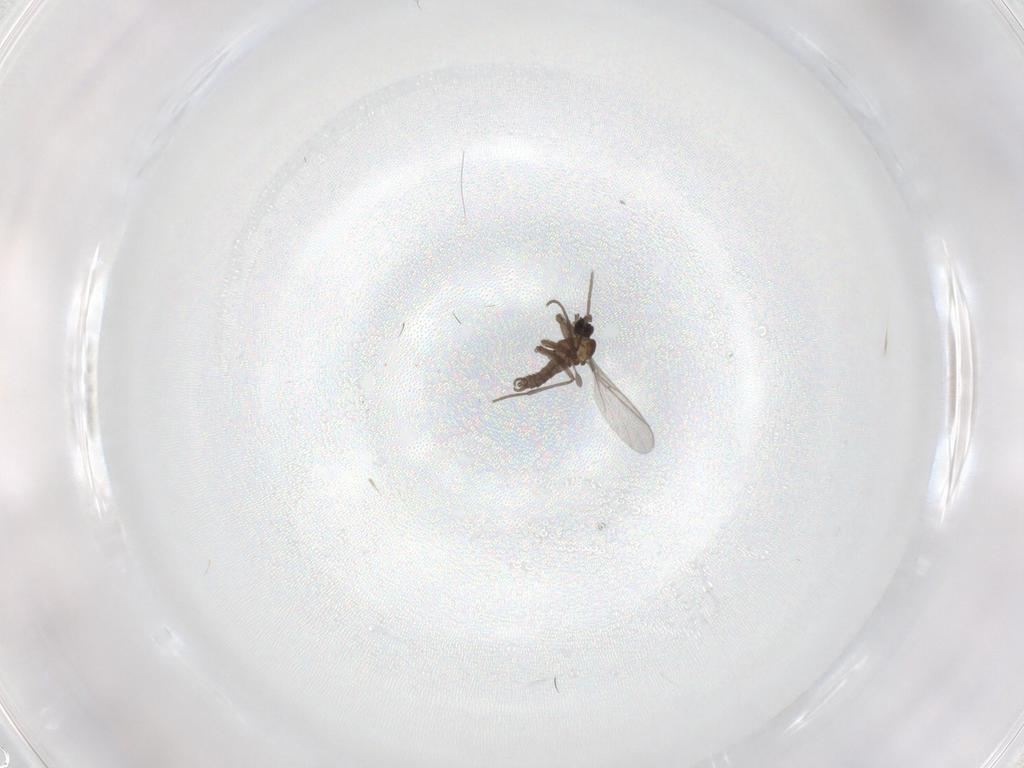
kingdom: Animalia
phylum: Arthropoda
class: Insecta
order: Diptera
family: Sciaridae
